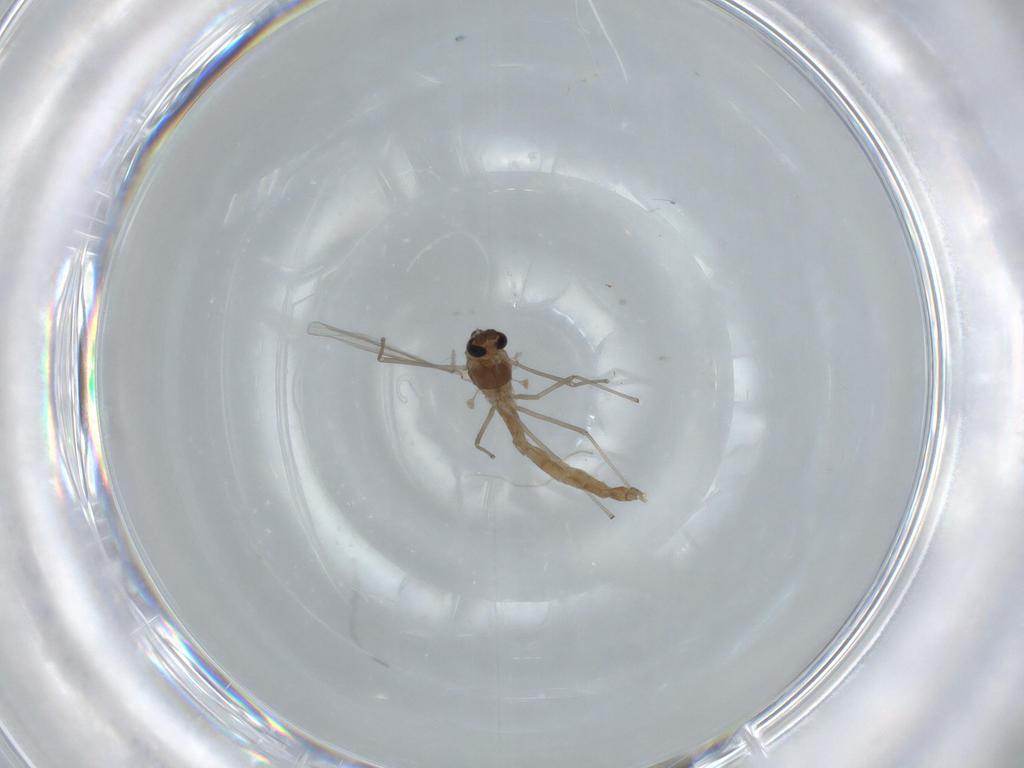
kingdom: Animalia
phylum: Arthropoda
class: Insecta
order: Diptera
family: Chironomidae
